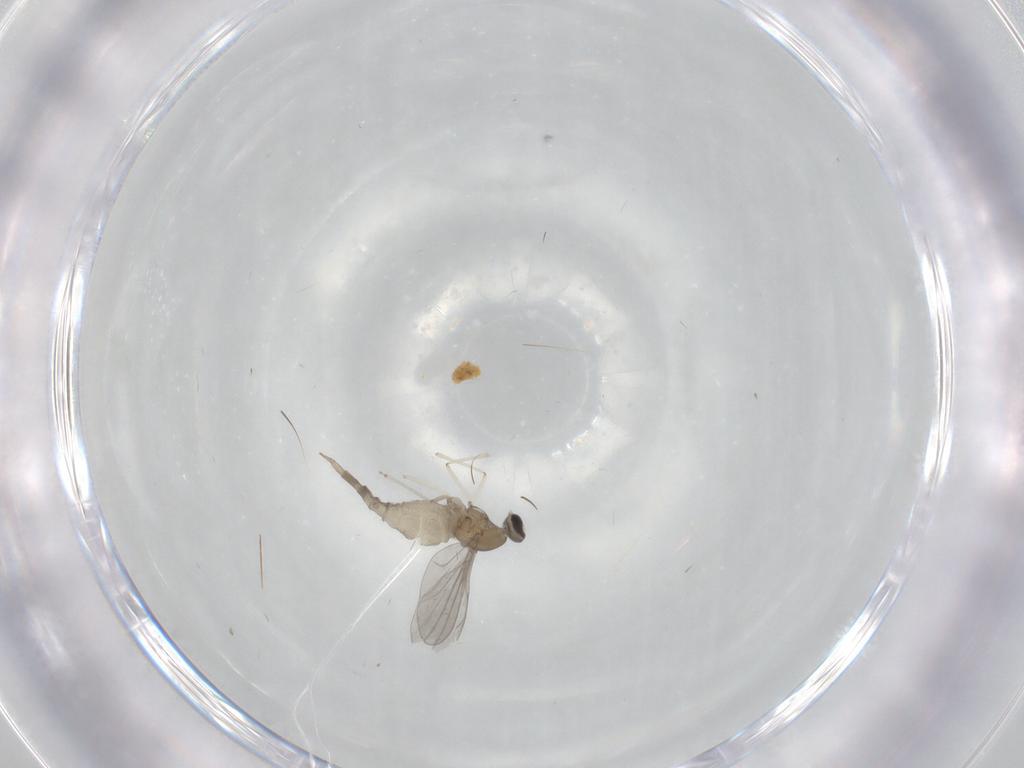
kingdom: Animalia
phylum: Arthropoda
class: Insecta
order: Diptera
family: Cecidomyiidae
